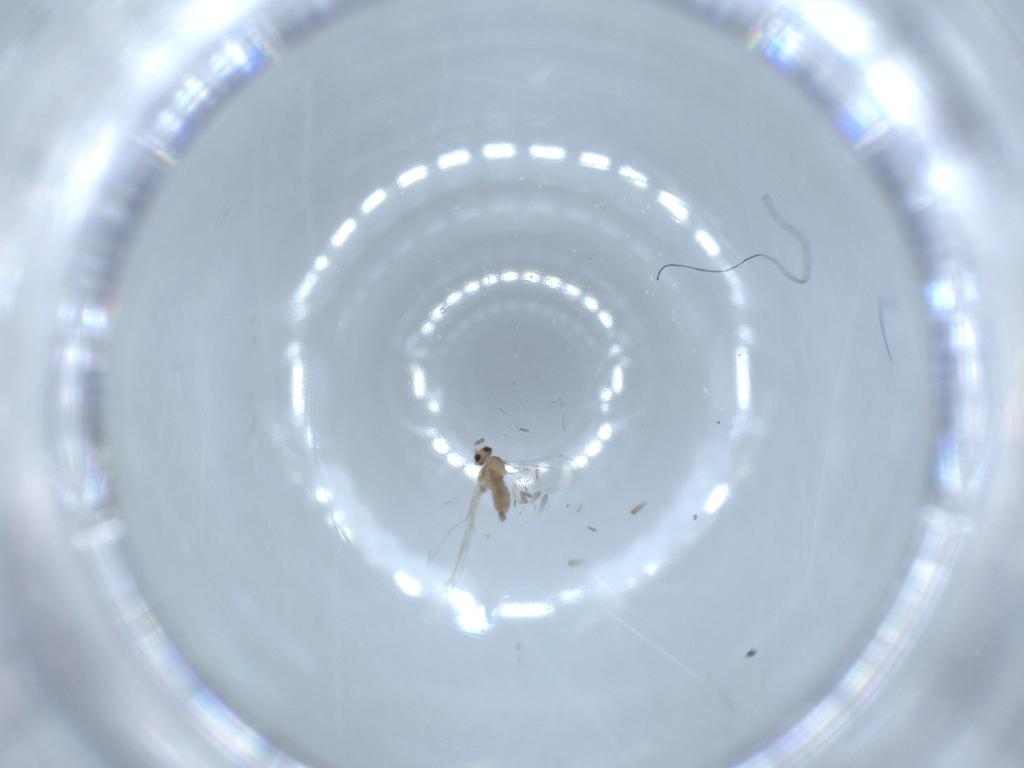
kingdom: Animalia
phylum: Arthropoda
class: Insecta
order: Diptera
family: Cecidomyiidae
